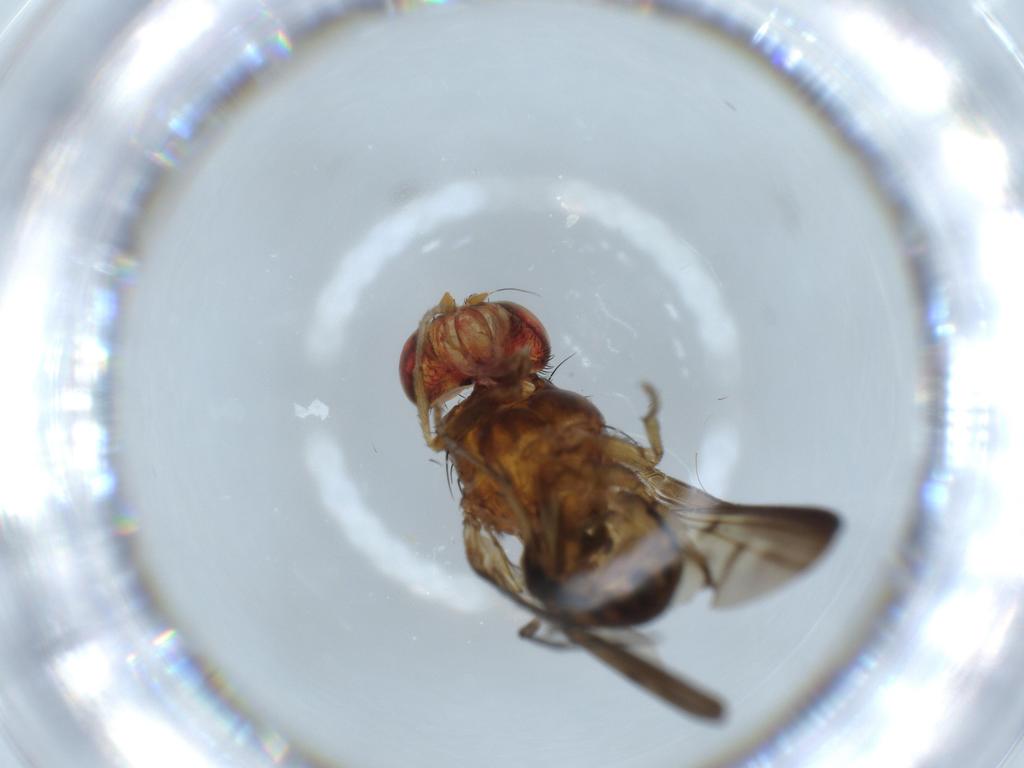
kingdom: Animalia
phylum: Arthropoda
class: Insecta
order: Diptera
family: Lauxaniidae
